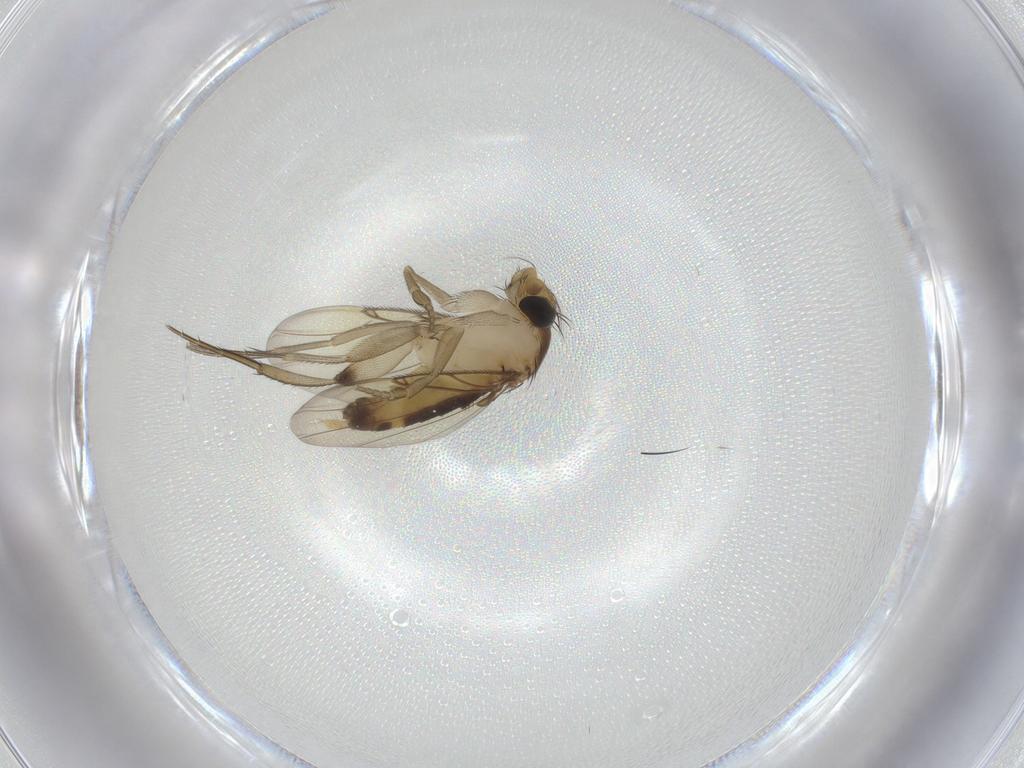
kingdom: Animalia
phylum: Arthropoda
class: Insecta
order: Diptera
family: Phoridae
